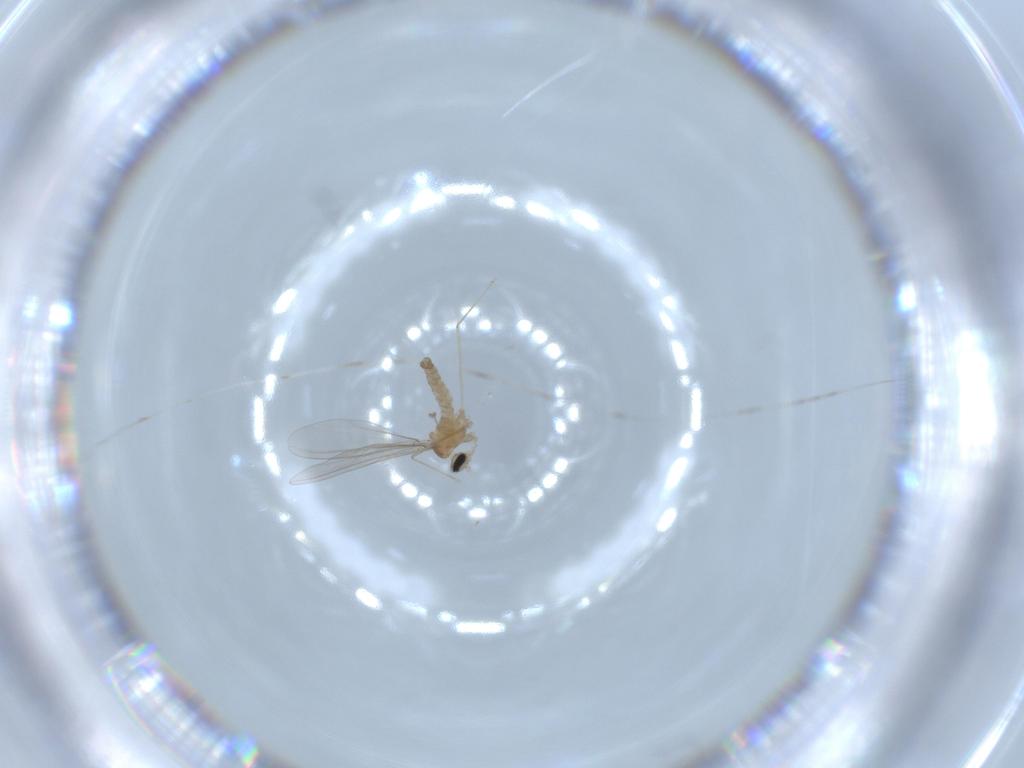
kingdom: Animalia
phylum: Arthropoda
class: Insecta
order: Diptera
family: Cecidomyiidae
